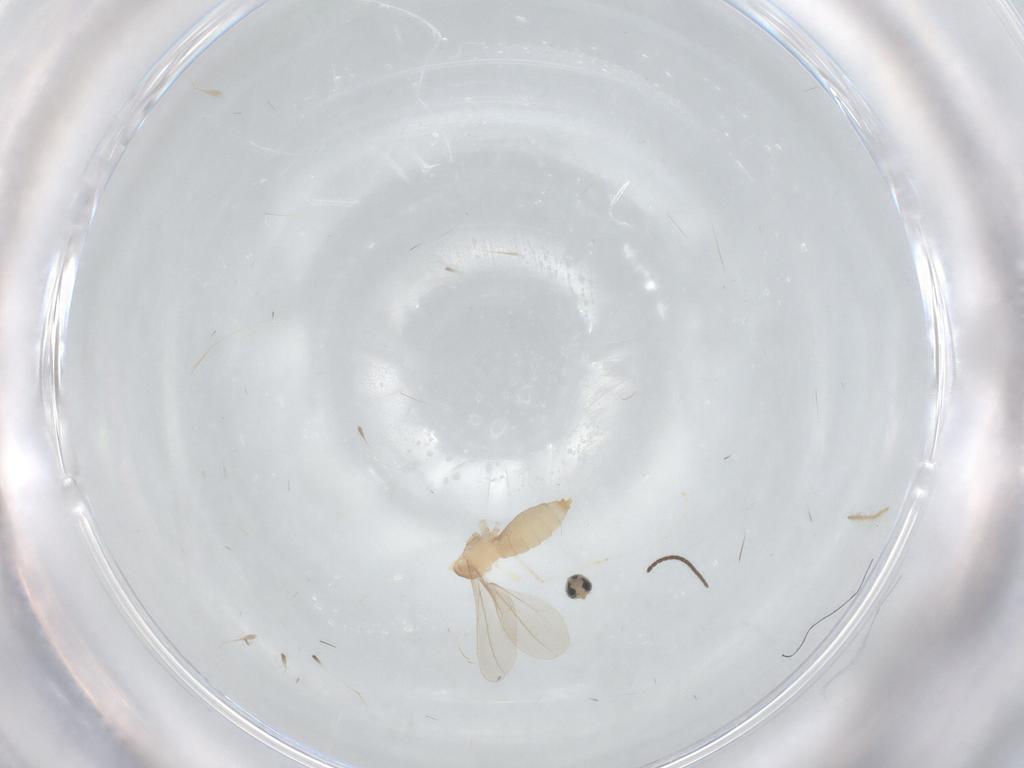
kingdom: Animalia
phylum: Arthropoda
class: Insecta
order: Diptera
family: Cecidomyiidae
